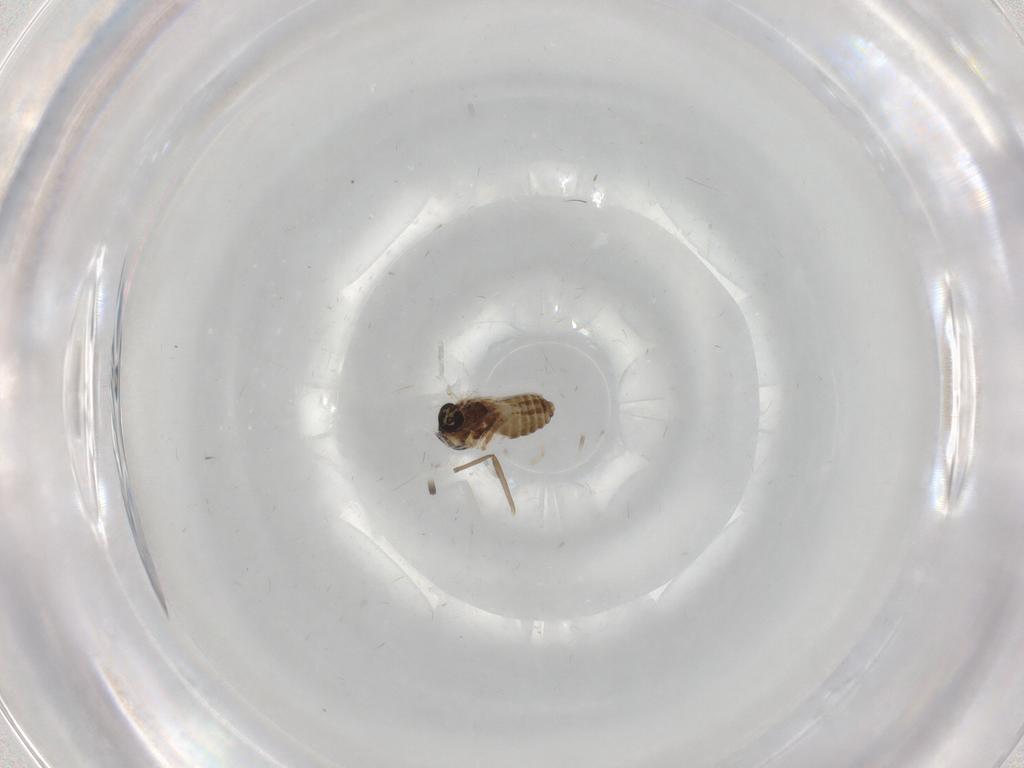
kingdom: Animalia
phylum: Arthropoda
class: Insecta
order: Diptera
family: Ceratopogonidae
